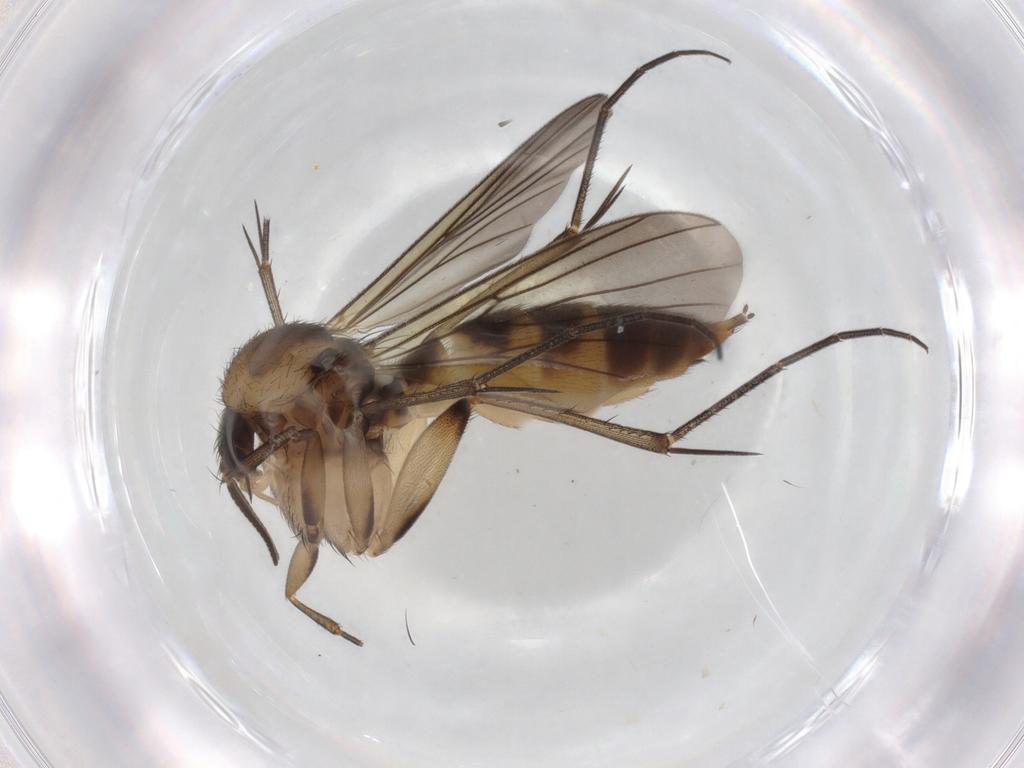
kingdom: Animalia
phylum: Arthropoda
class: Insecta
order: Diptera
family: Mycetophilidae
